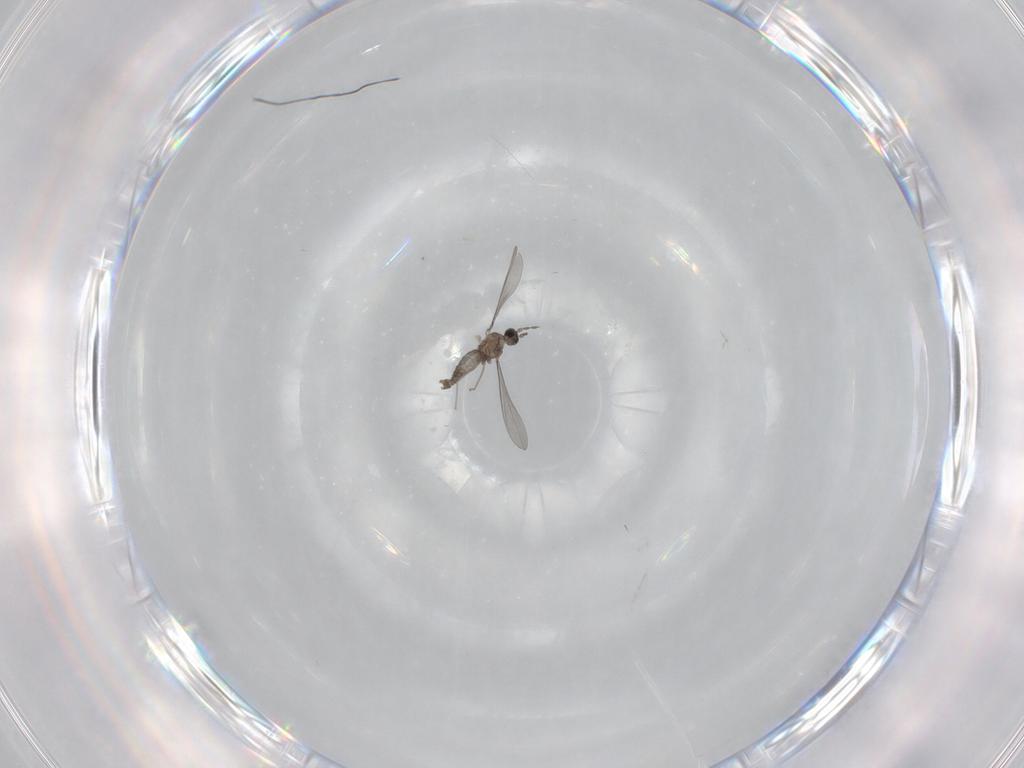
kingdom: Animalia
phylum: Arthropoda
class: Insecta
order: Diptera
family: Cecidomyiidae
